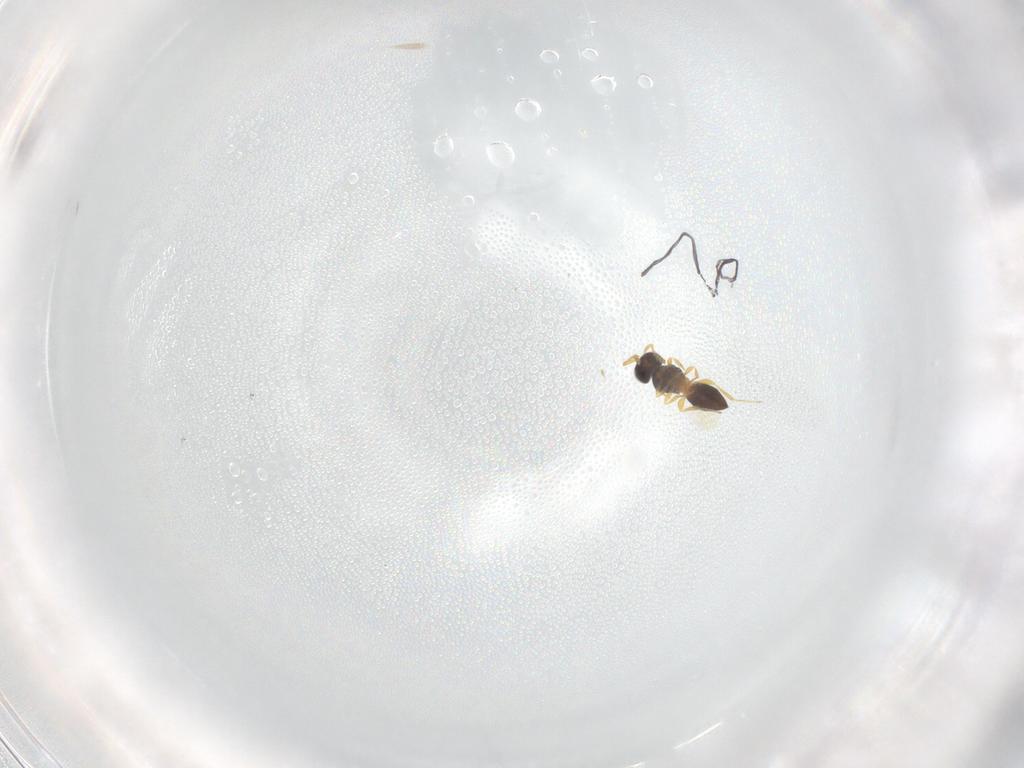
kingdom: Animalia
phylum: Arthropoda
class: Insecta
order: Hymenoptera
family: Platygastridae
